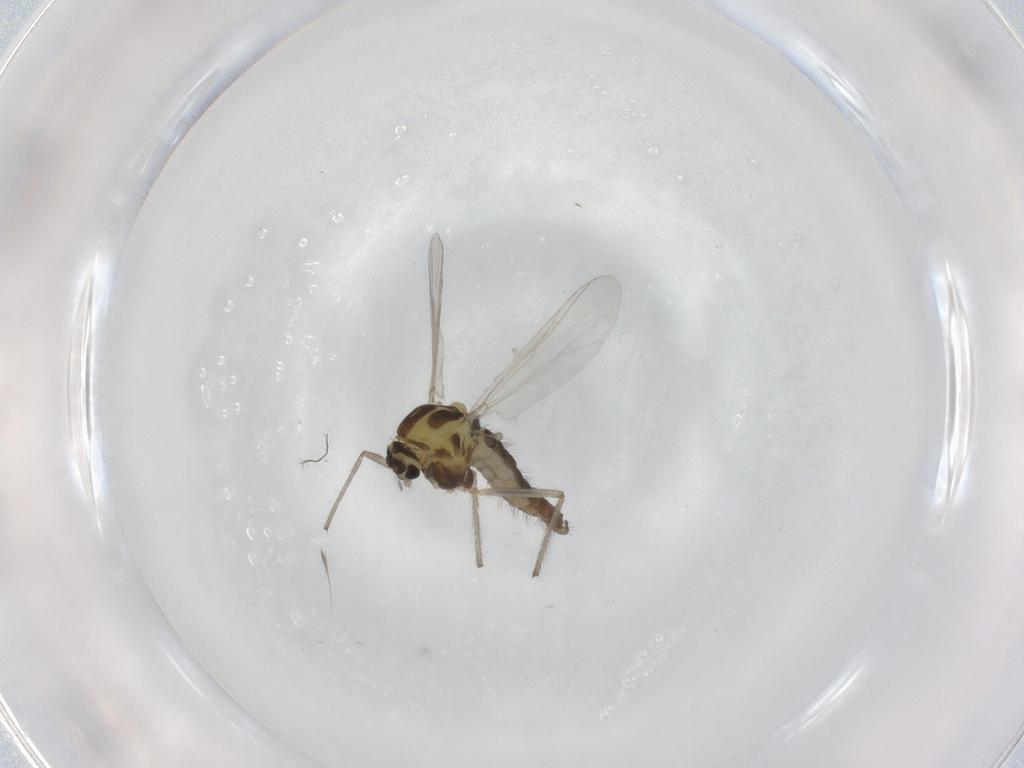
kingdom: Animalia
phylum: Arthropoda
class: Insecta
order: Diptera
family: Chironomidae
